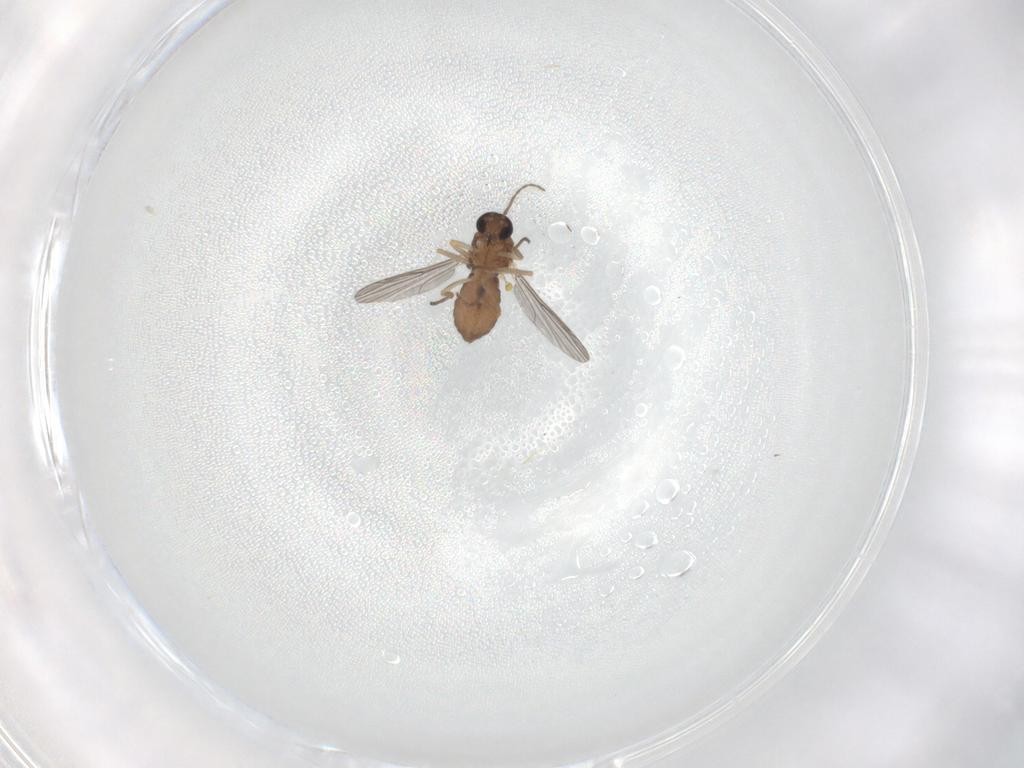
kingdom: Animalia
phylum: Arthropoda
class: Insecta
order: Diptera
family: Ceratopogonidae
